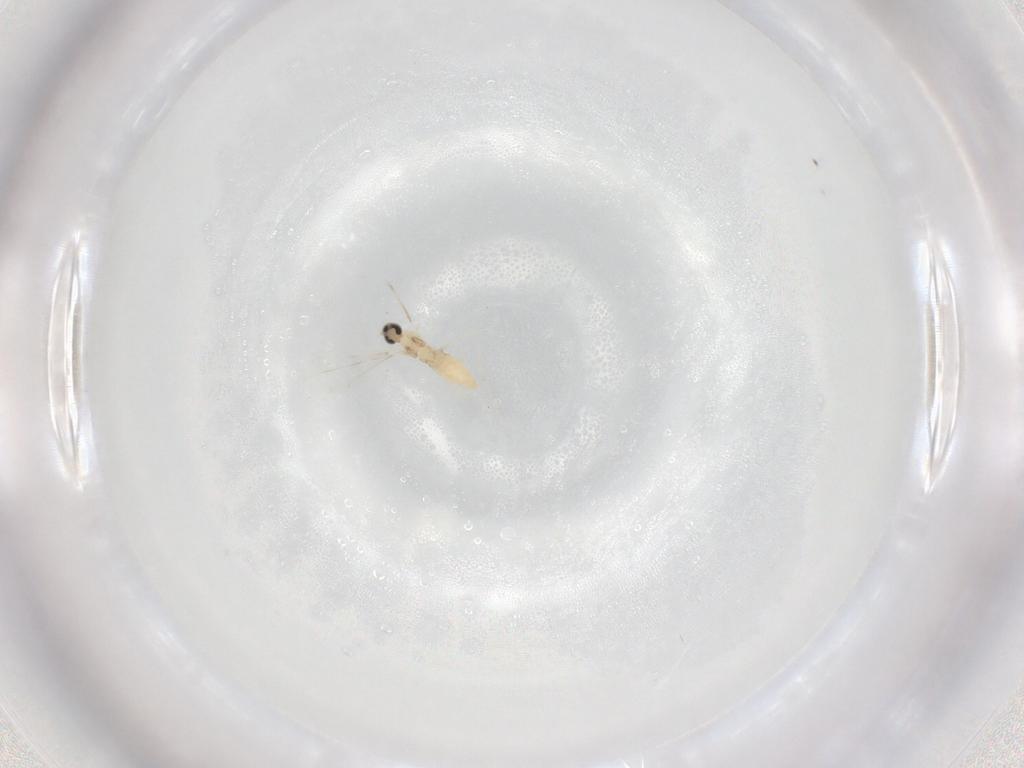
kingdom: Animalia
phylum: Arthropoda
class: Insecta
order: Diptera
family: Cecidomyiidae
